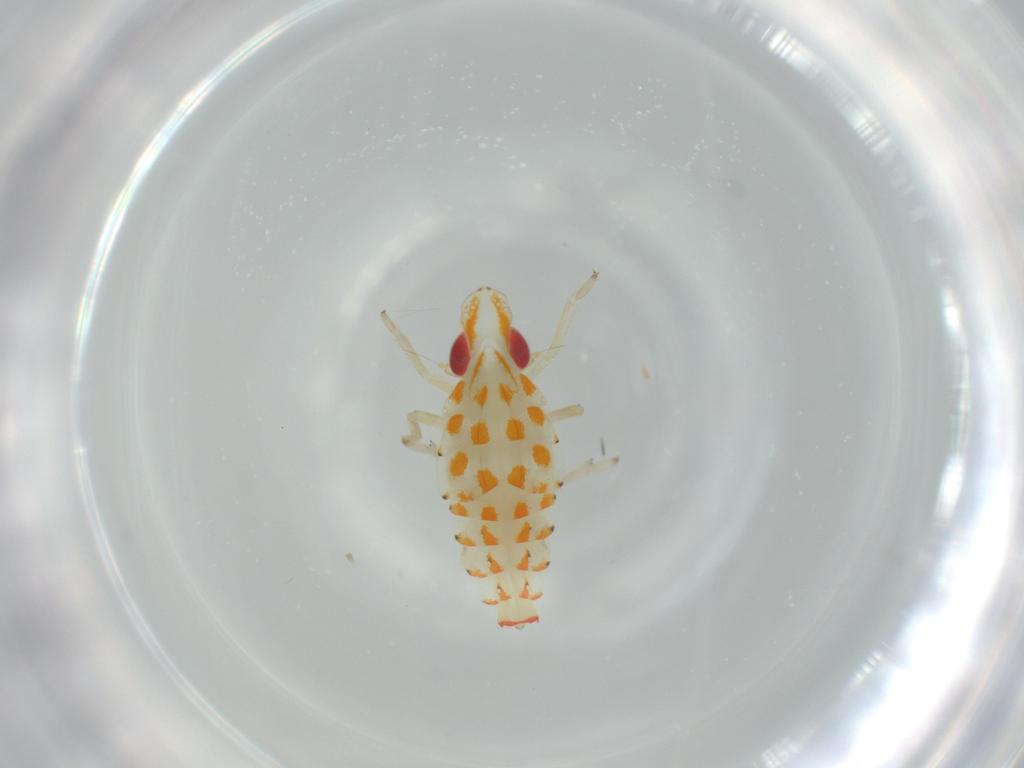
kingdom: Animalia
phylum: Arthropoda
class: Insecta
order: Hemiptera
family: Tropiduchidae
